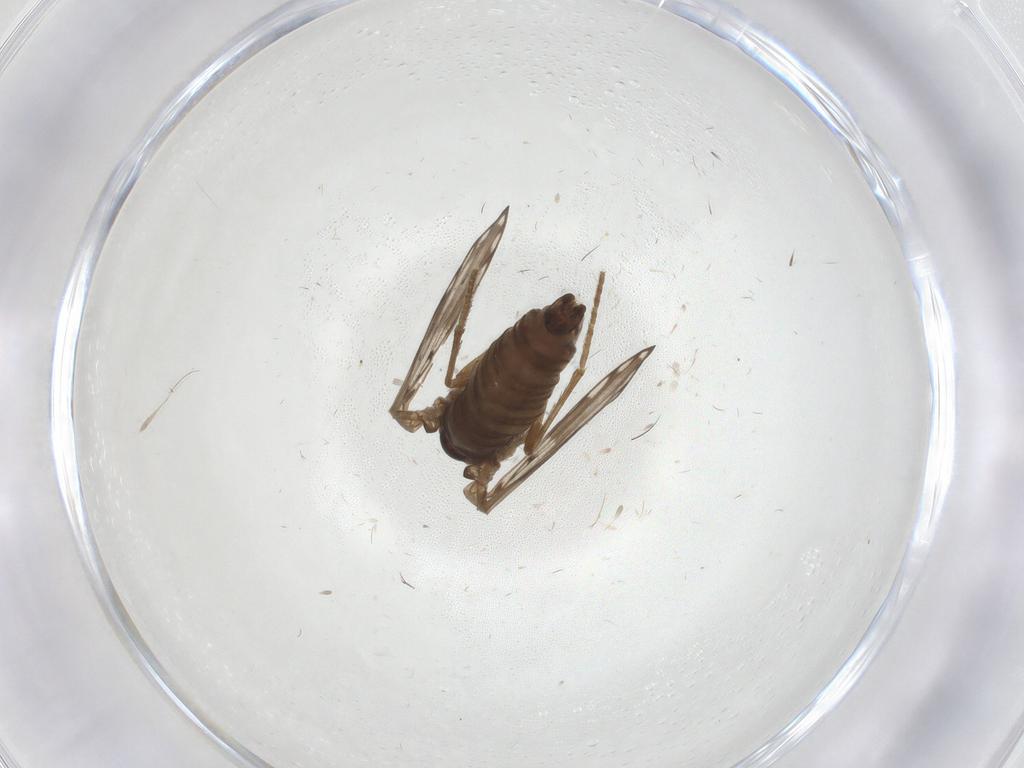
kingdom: Animalia
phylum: Arthropoda
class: Insecta
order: Diptera
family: Psychodidae
